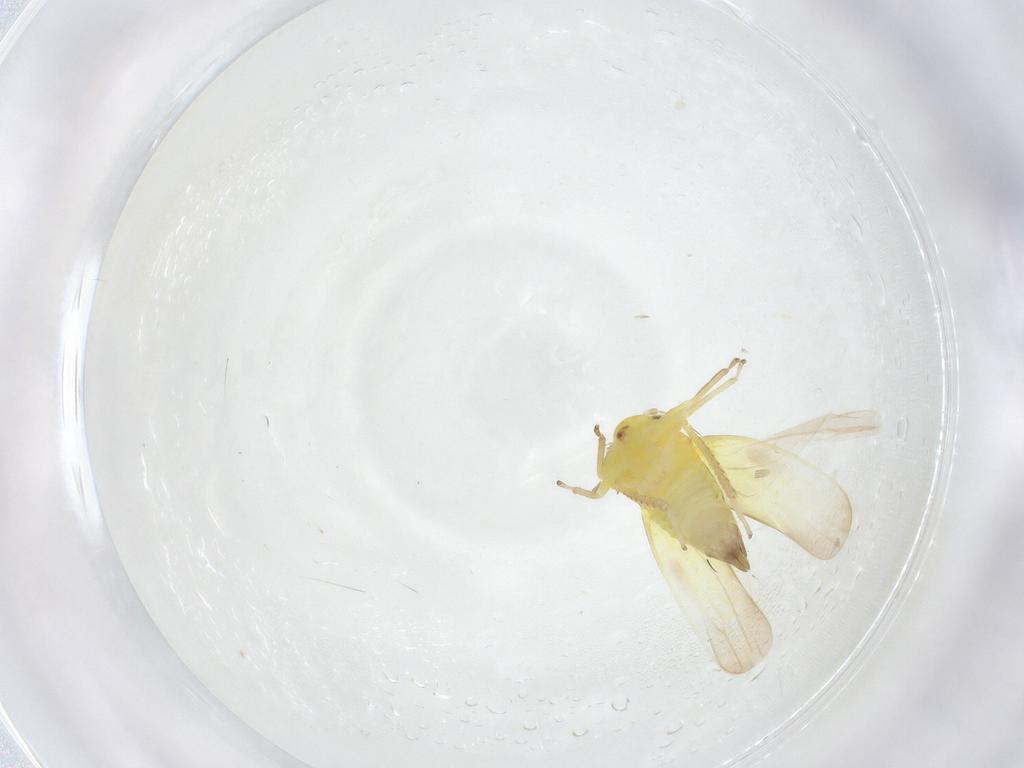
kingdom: Animalia
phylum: Arthropoda
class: Insecta
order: Hemiptera
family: Cicadellidae
